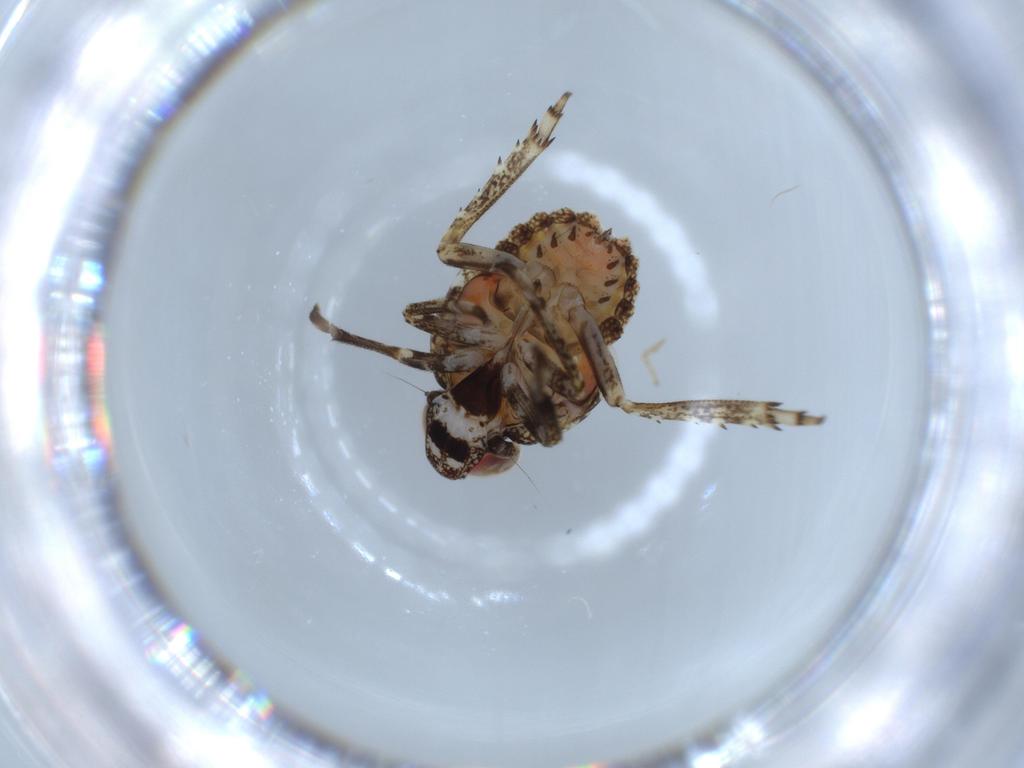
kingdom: Animalia
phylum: Arthropoda
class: Insecta
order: Hemiptera
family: Issidae
